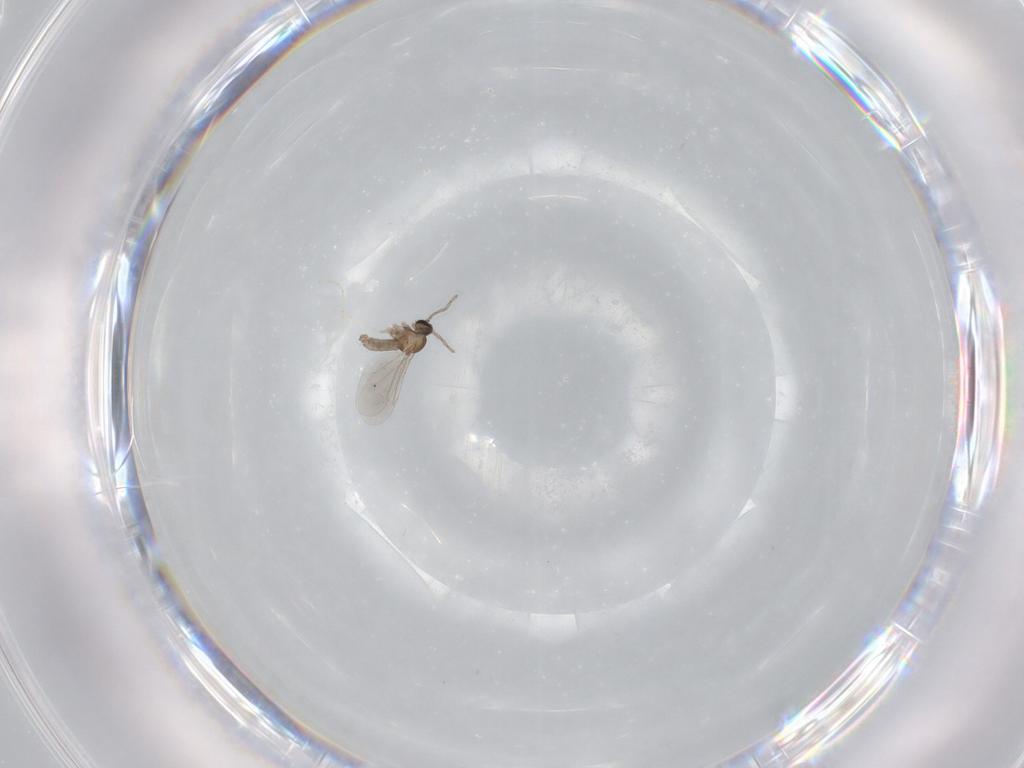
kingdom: Animalia
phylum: Arthropoda
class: Insecta
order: Diptera
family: Cecidomyiidae
